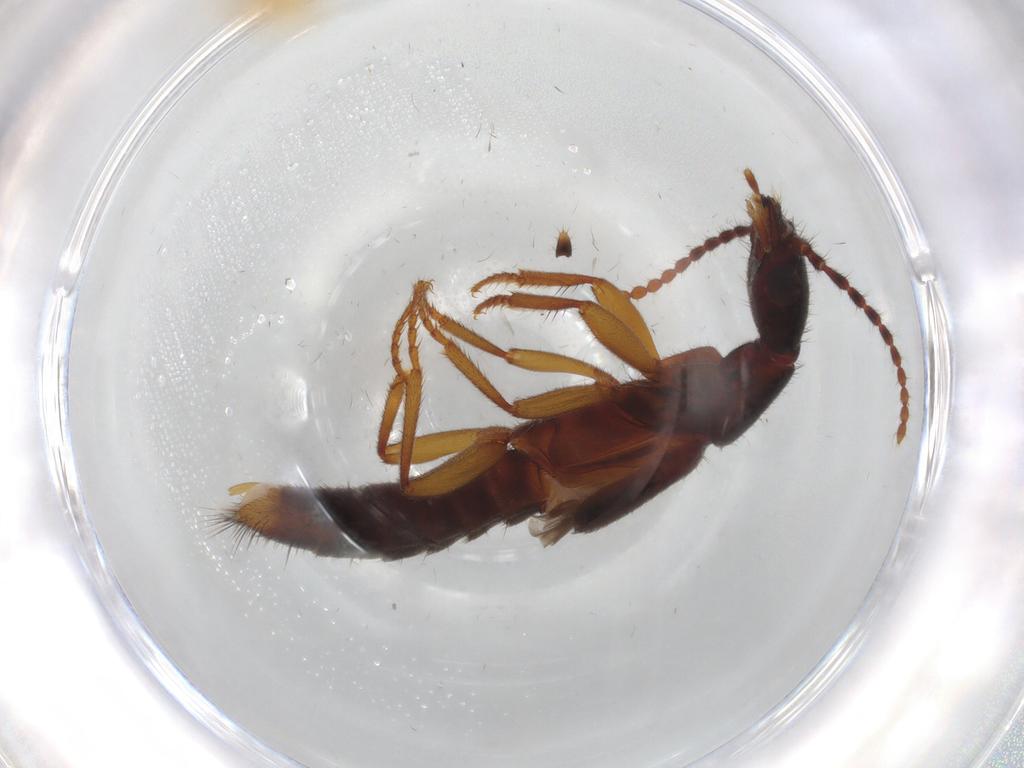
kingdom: Animalia
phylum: Arthropoda
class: Insecta
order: Coleoptera
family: Staphylinidae
